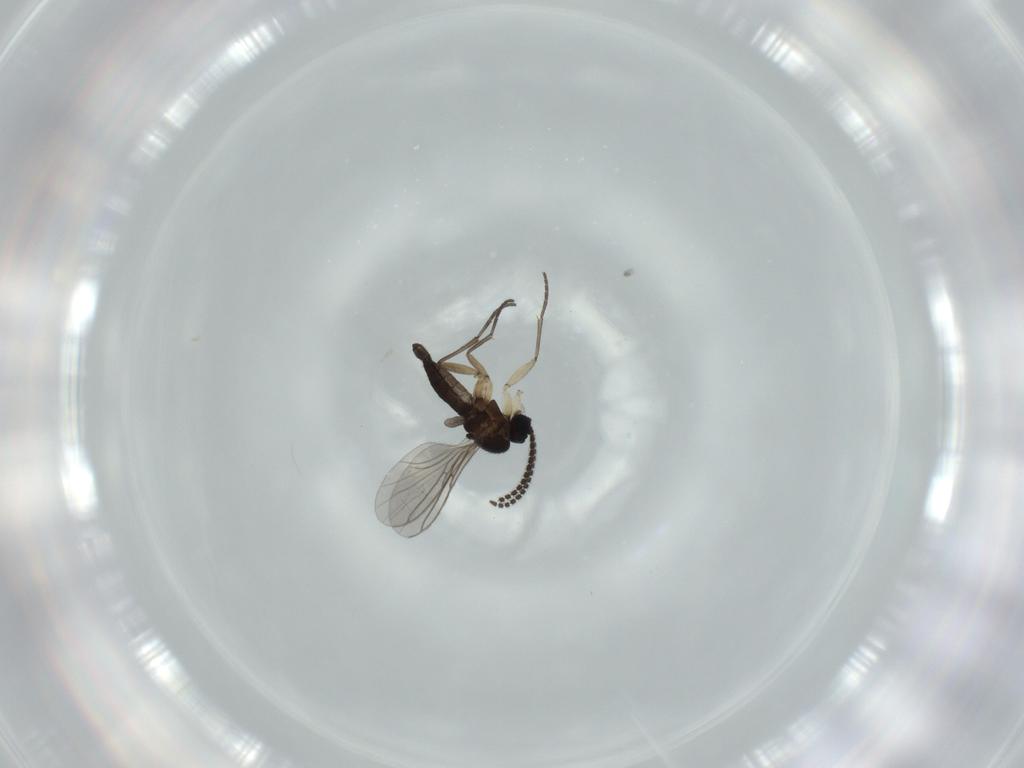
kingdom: Animalia
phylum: Arthropoda
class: Insecta
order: Diptera
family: Sciaridae
